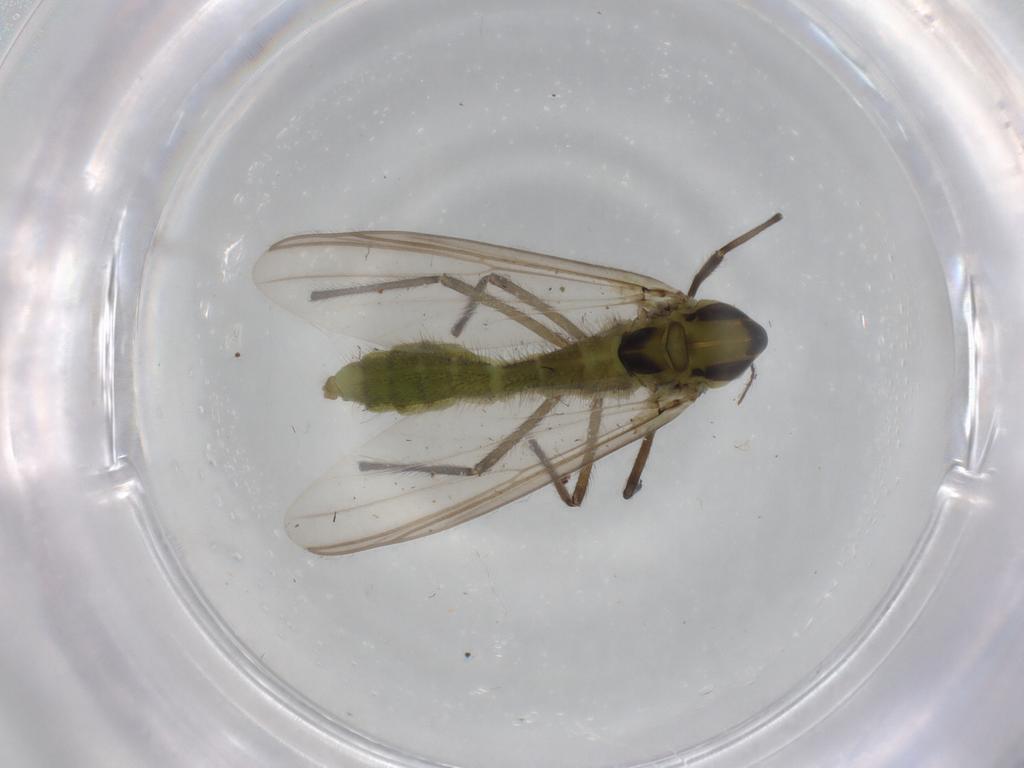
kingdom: Animalia
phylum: Arthropoda
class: Insecta
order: Diptera
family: Chironomidae
